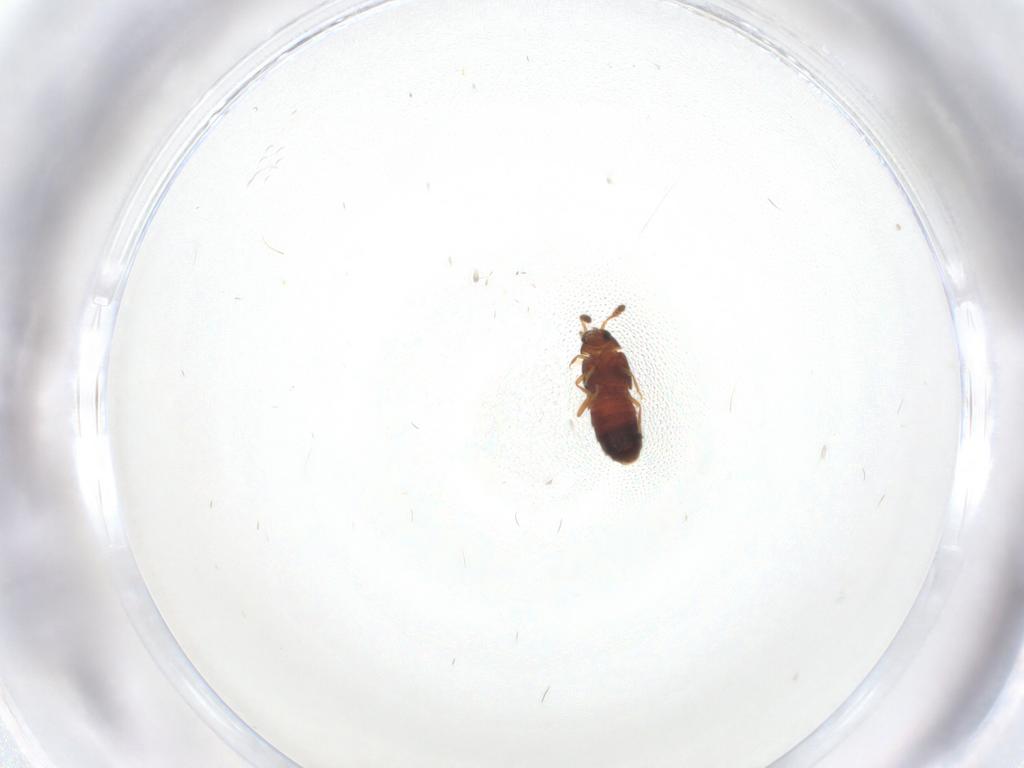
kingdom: Animalia
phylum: Arthropoda
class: Insecta
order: Coleoptera
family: Staphylinidae
